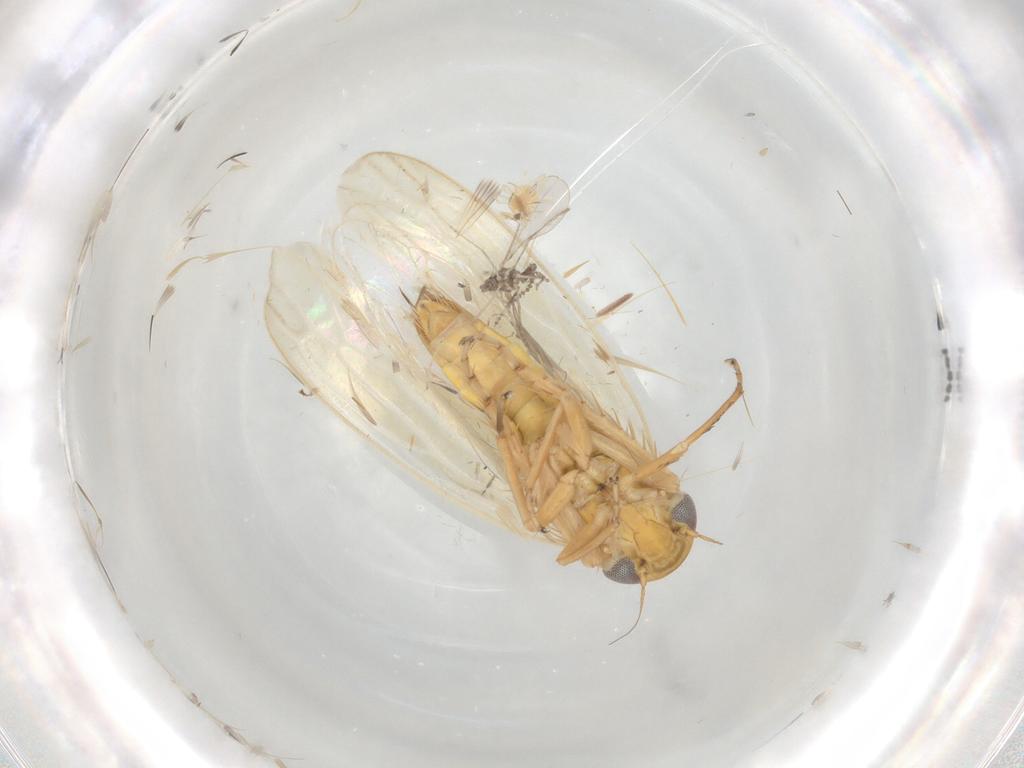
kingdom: Animalia
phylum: Arthropoda
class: Insecta
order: Hemiptera
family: Cicadellidae
